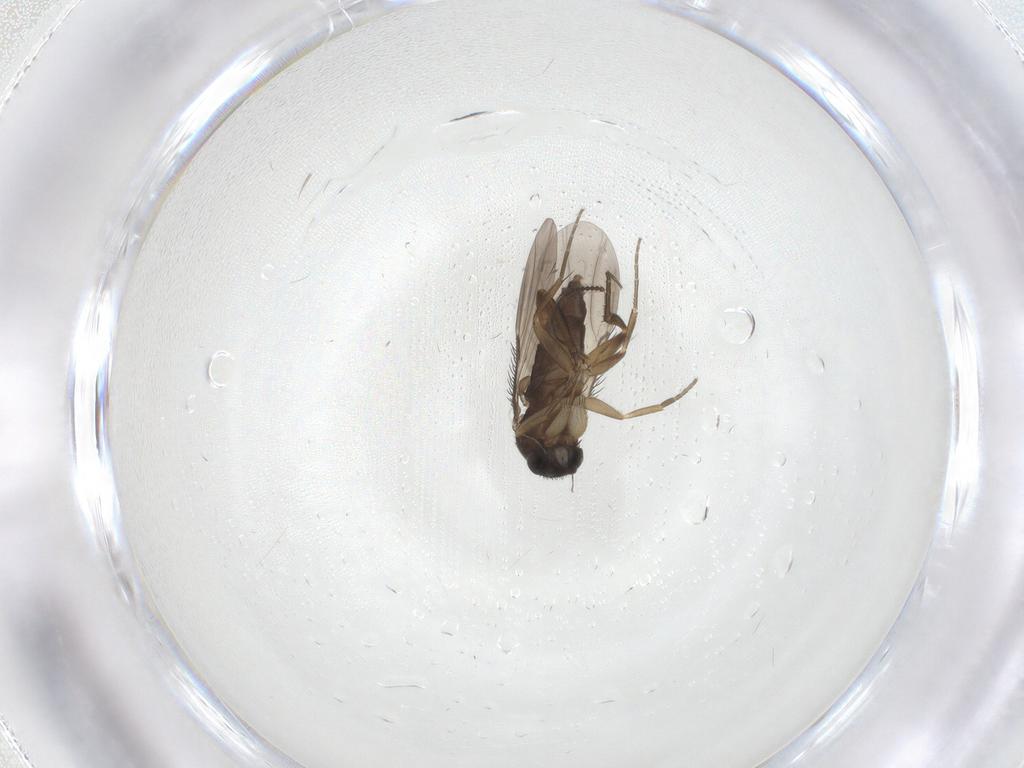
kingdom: Animalia
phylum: Arthropoda
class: Insecta
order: Diptera
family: Phoridae
